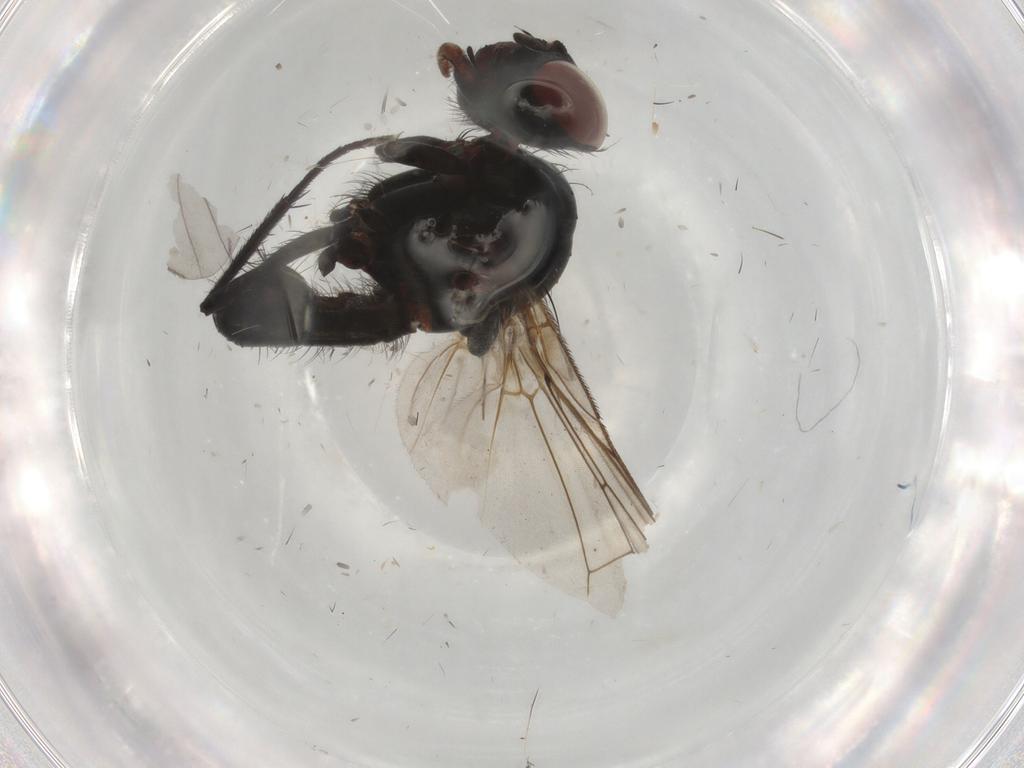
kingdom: Animalia
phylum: Arthropoda
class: Insecta
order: Diptera
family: Anthomyiidae
